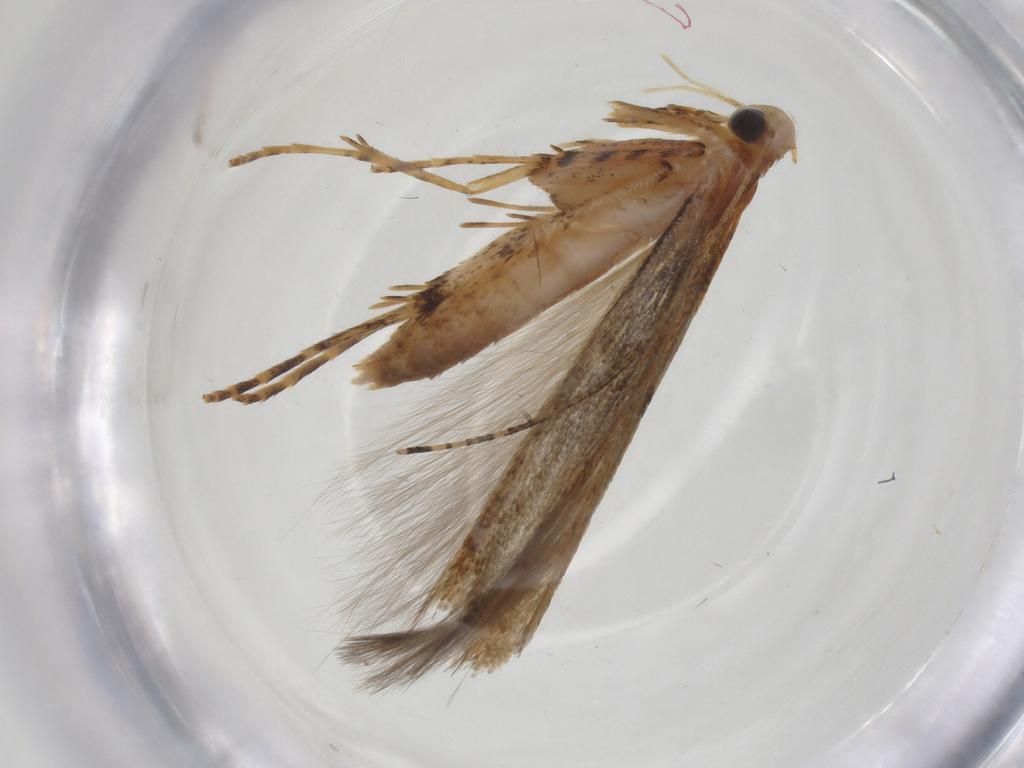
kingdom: Animalia
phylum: Arthropoda
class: Insecta
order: Lepidoptera
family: Batrachedridae
